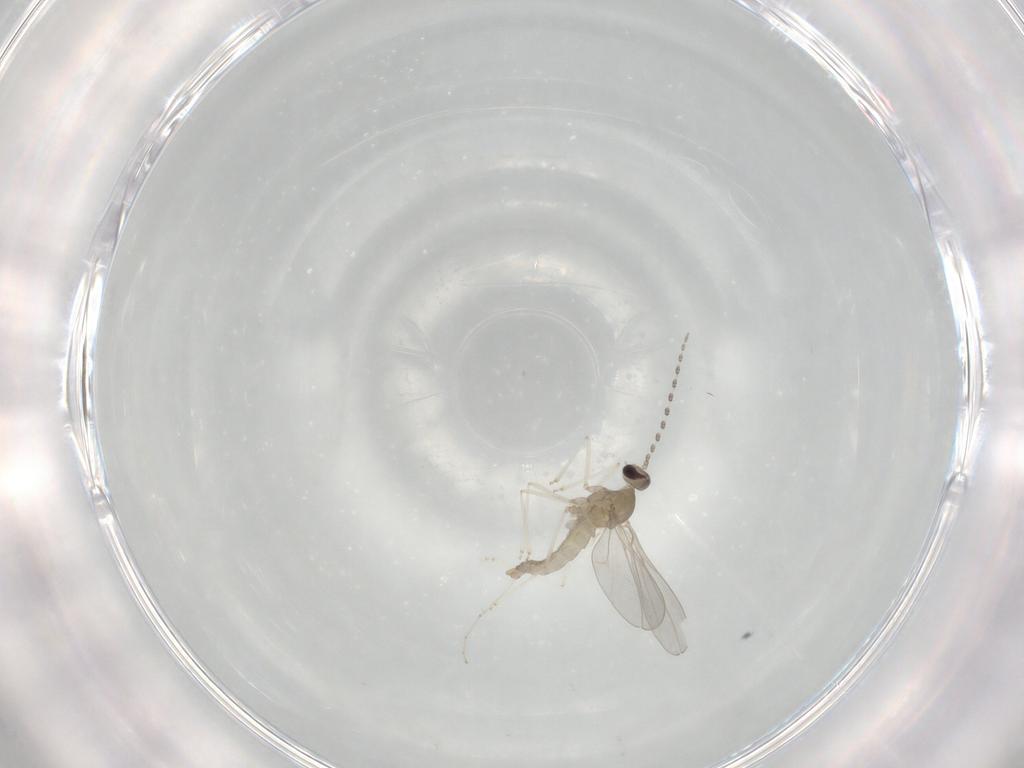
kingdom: Animalia
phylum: Arthropoda
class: Insecta
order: Diptera
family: Cecidomyiidae
